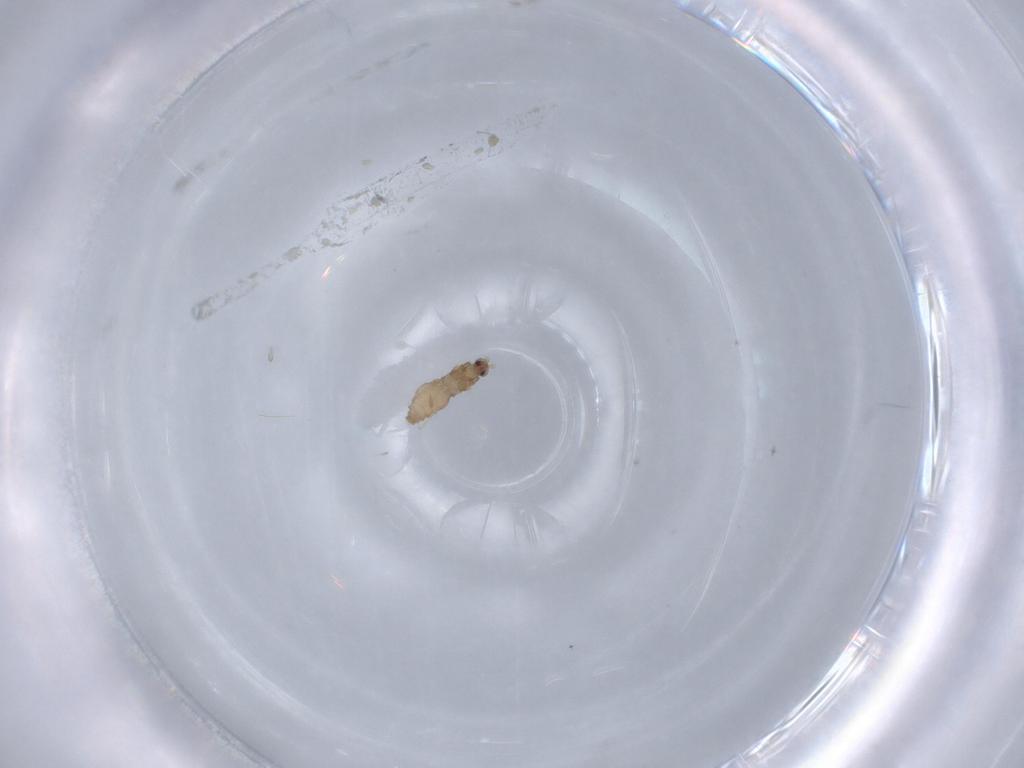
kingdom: Animalia
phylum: Arthropoda
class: Insecta
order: Diptera
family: Cecidomyiidae
